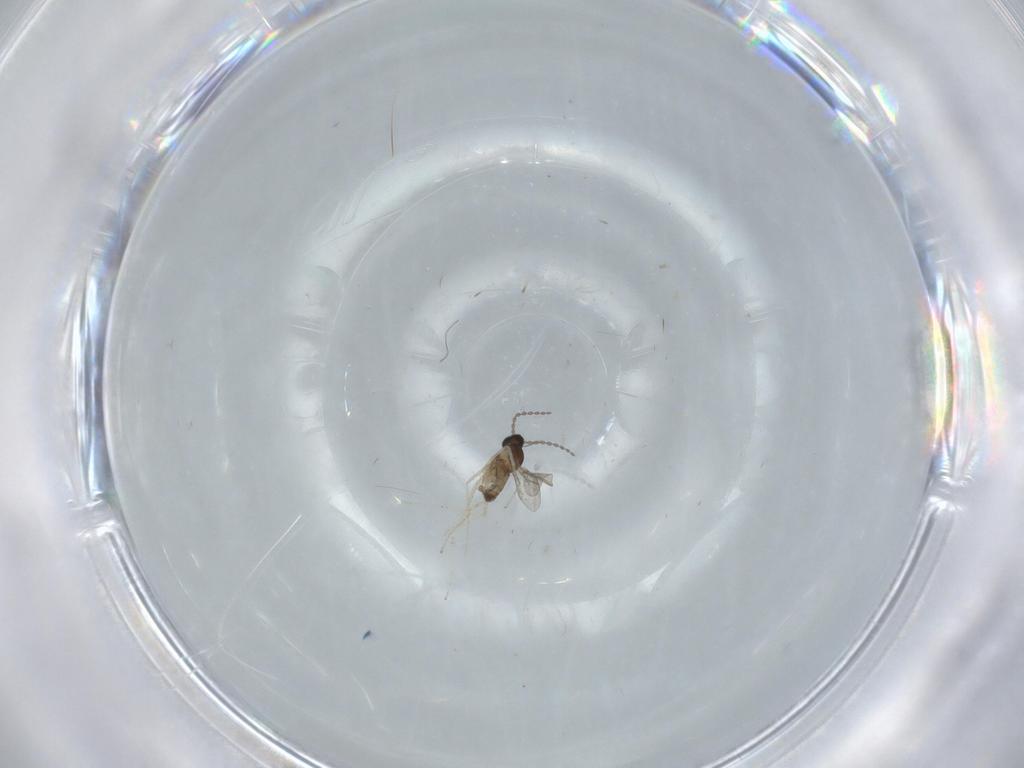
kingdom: Animalia
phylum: Arthropoda
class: Insecta
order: Diptera
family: Cecidomyiidae
